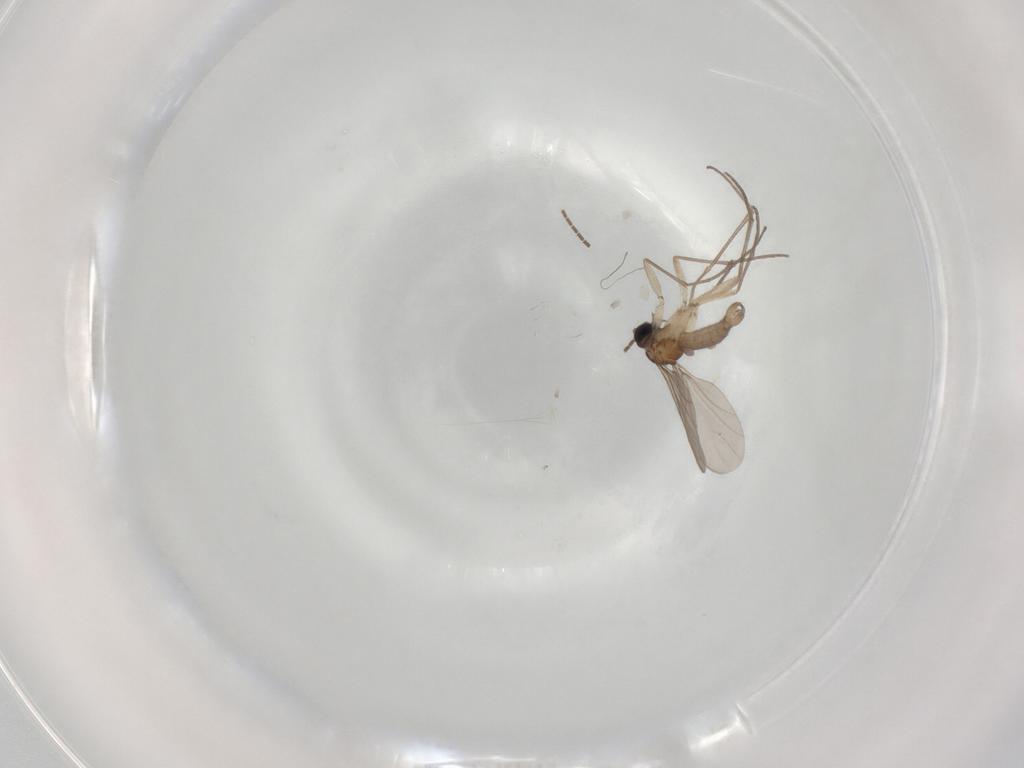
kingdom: Animalia
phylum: Arthropoda
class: Insecta
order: Diptera
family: Sciaridae
